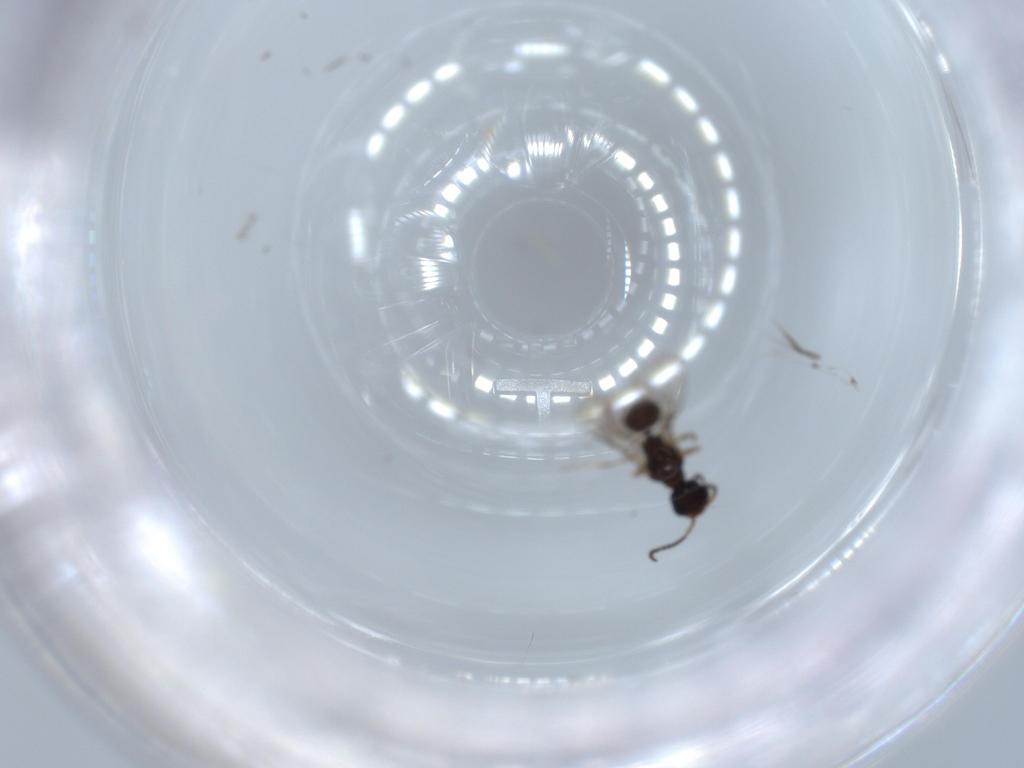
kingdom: Animalia
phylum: Arthropoda
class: Insecta
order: Hymenoptera
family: Bethylidae
